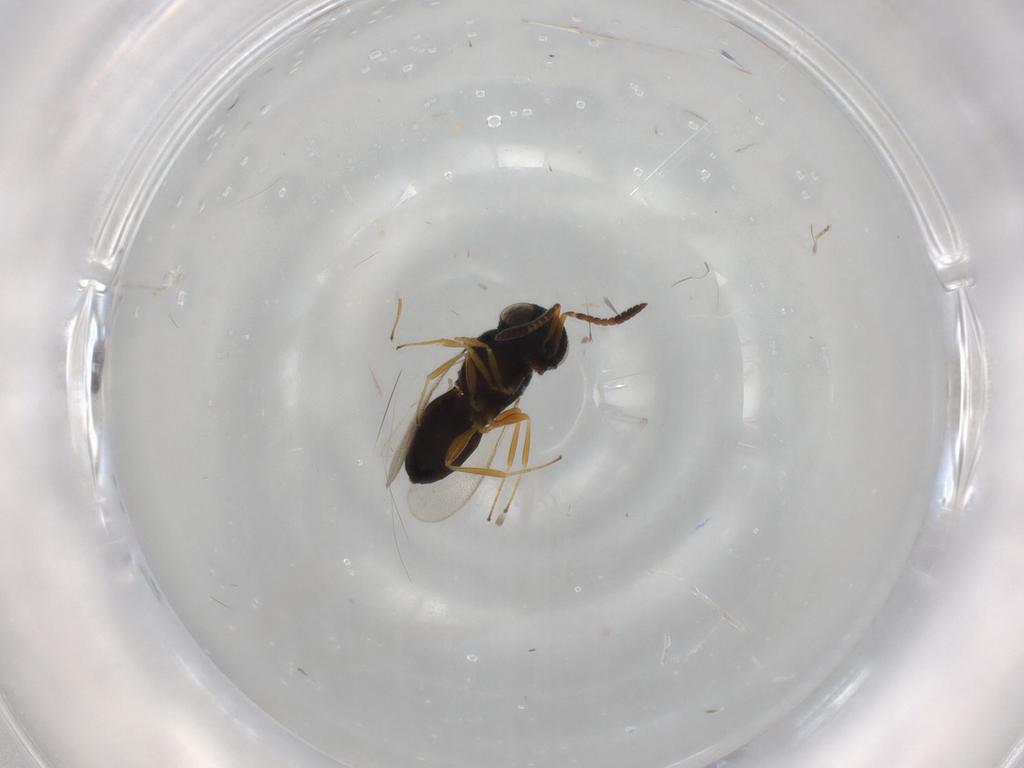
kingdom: Animalia
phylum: Arthropoda
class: Insecta
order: Hymenoptera
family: Scelionidae
